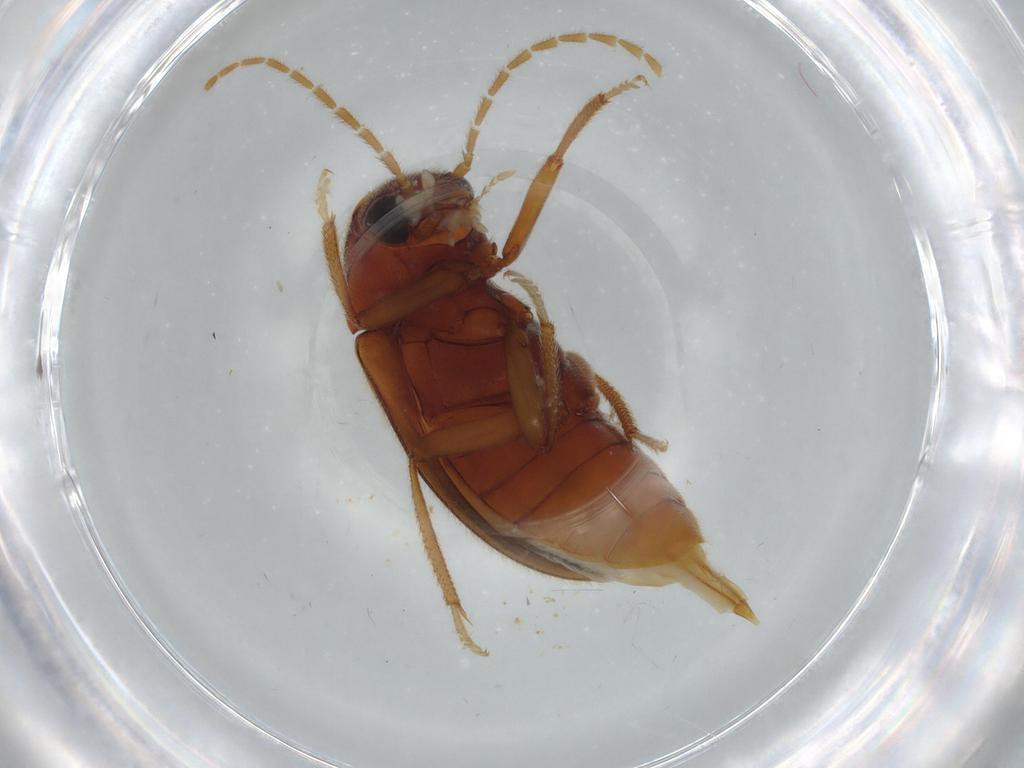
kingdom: Animalia
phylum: Arthropoda
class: Insecta
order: Coleoptera
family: Ptilodactylidae
